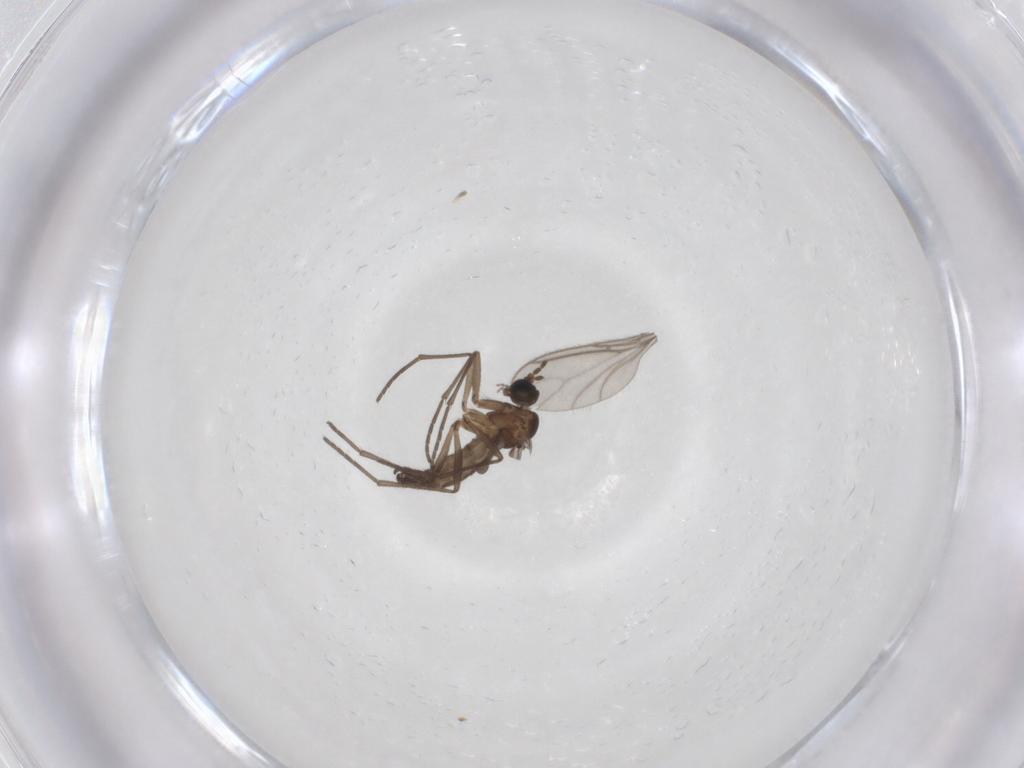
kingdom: Animalia
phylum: Arthropoda
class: Insecta
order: Diptera
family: Sciaridae
